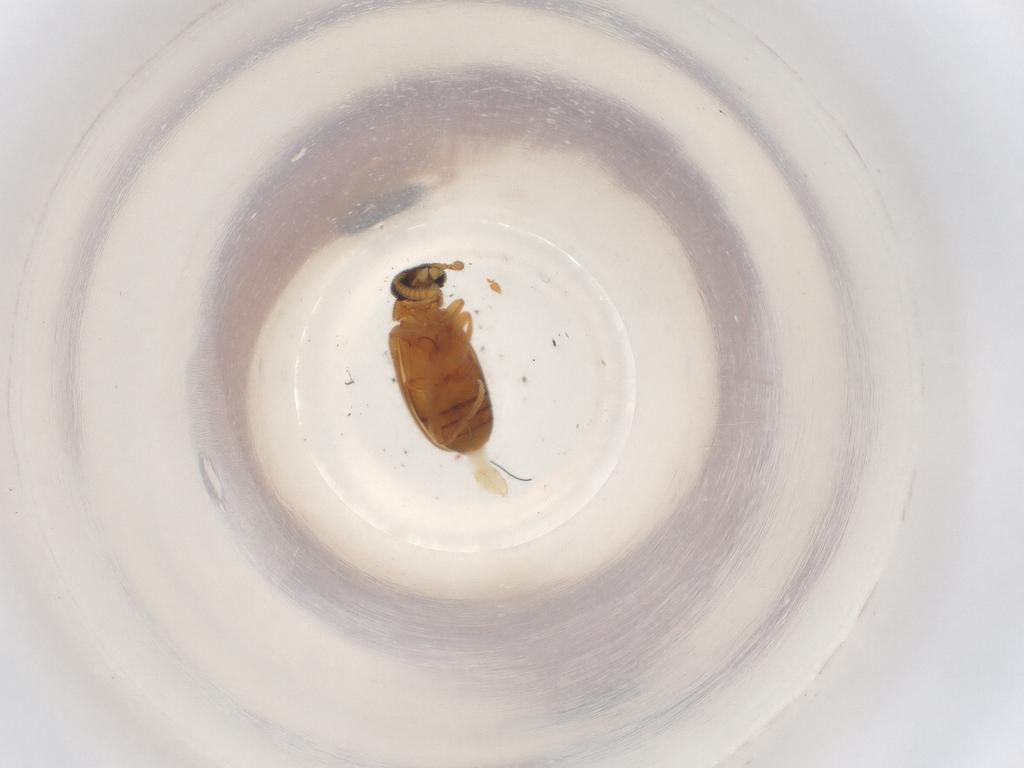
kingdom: Animalia
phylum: Arthropoda
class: Insecta
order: Coleoptera
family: Aderidae
